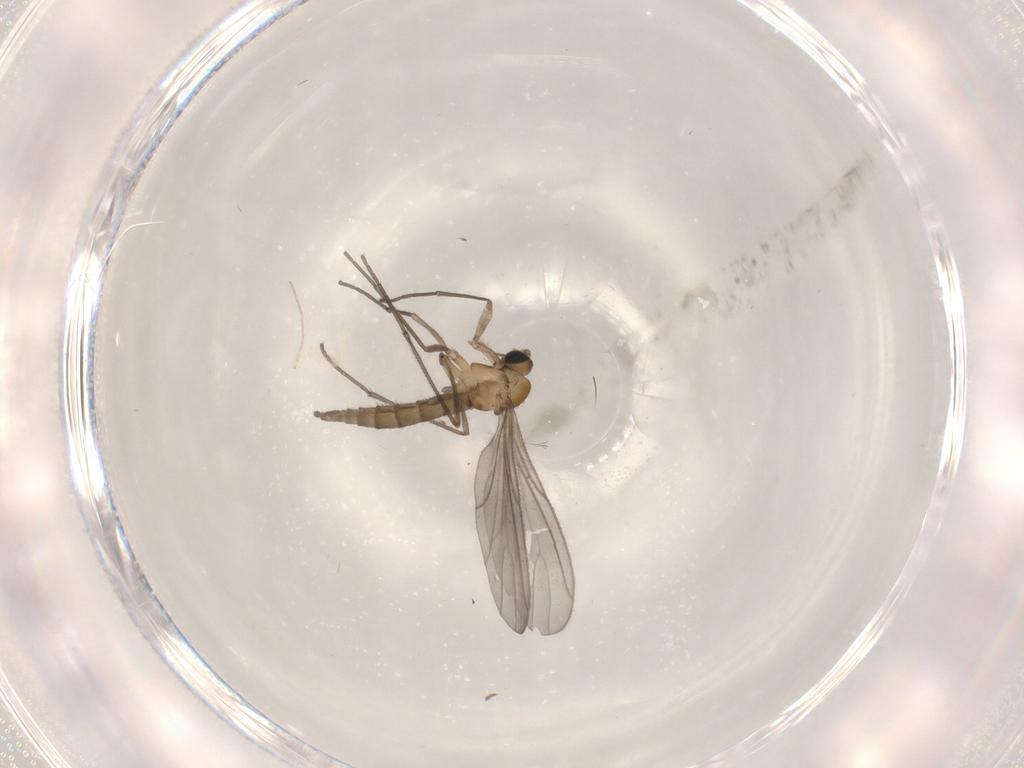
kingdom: Animalia
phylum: Arthropoda
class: Insecta
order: Diptera
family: Sciaridae
